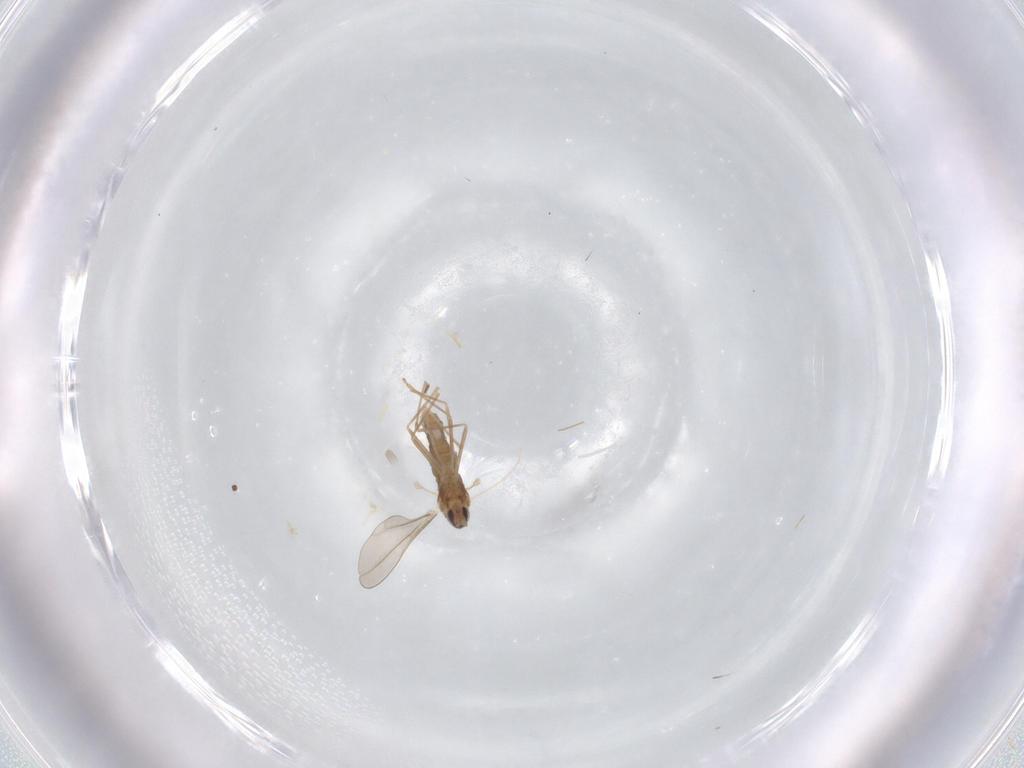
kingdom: Animalia
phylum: Arthropoda
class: Insecta
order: Diptera
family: Cecidomyiidae
